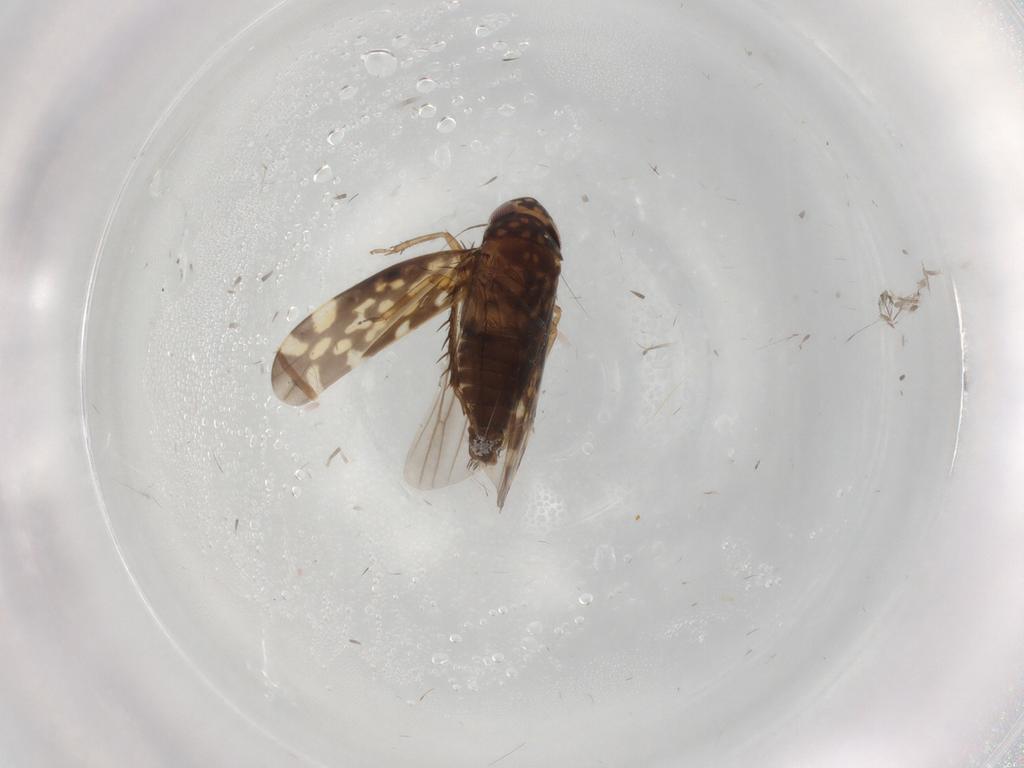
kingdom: Animalia
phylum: Arthropoda
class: Insecta
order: Hemiptera
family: Cicadellidae
